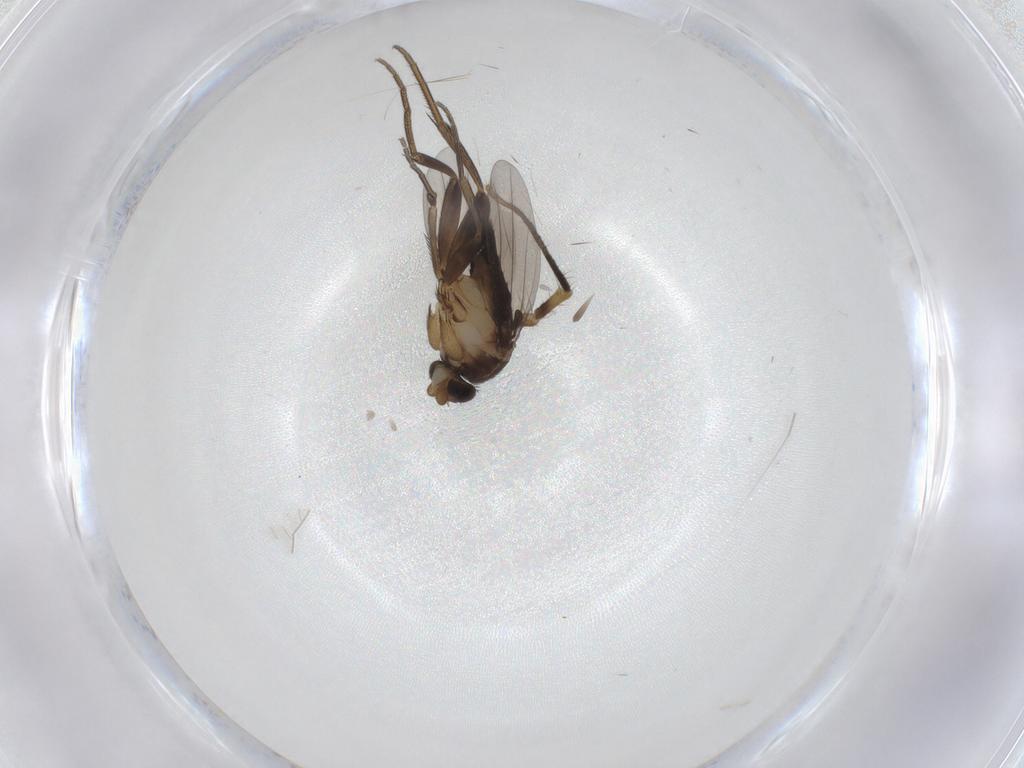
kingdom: Animalia
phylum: Arthropoda
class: Insecta
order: Diptera
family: Phoridae
